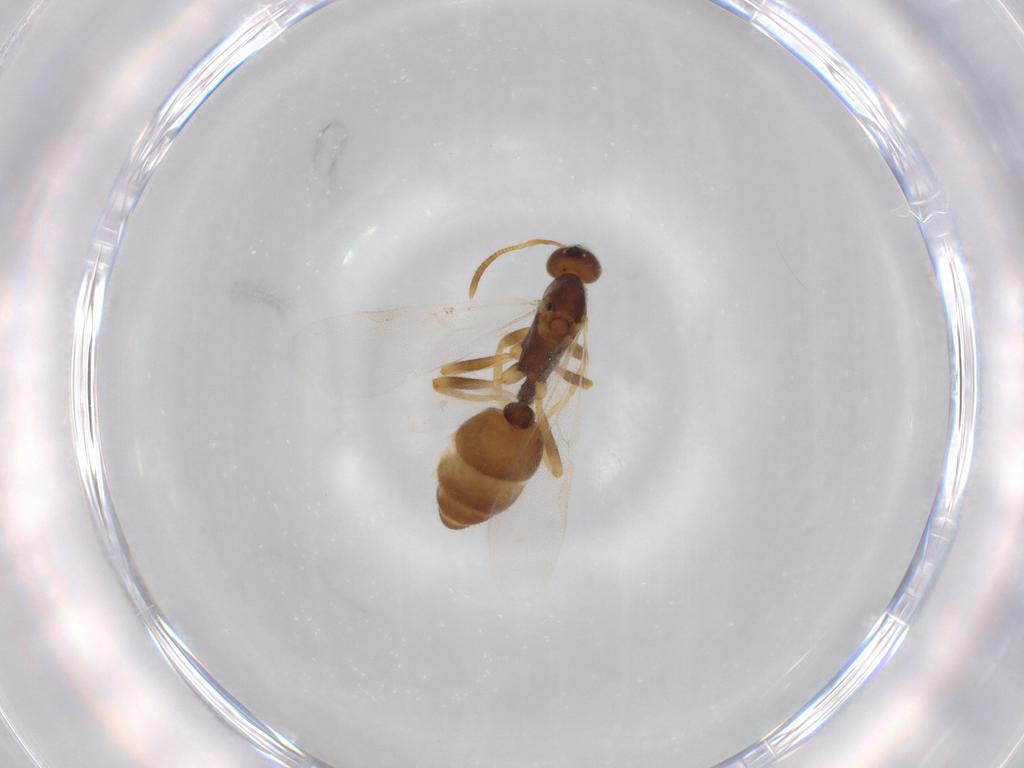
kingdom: Animalia
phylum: Arthropoda
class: Insecta
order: Hymenoptera
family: Formicidae
